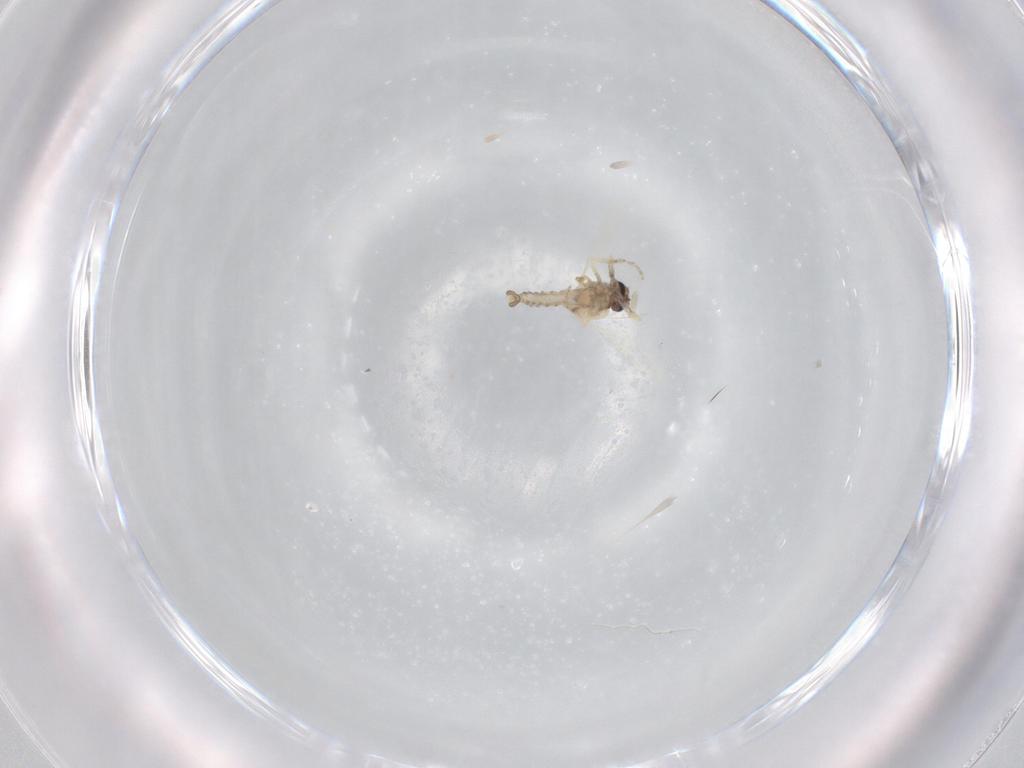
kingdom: Animalia
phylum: Arthropoda
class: Insecta
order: Diptera
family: Ceratopogonidae
